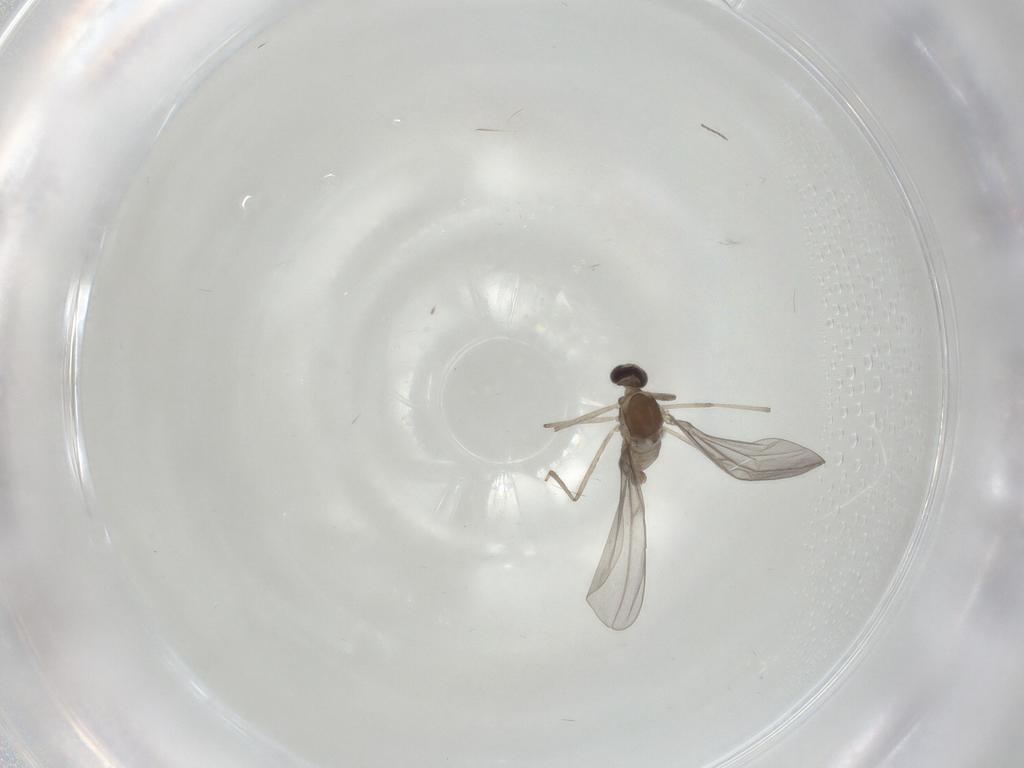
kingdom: Animalia
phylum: Arthropoda
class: Insecta
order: Diptera
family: Cecidomyiidae
